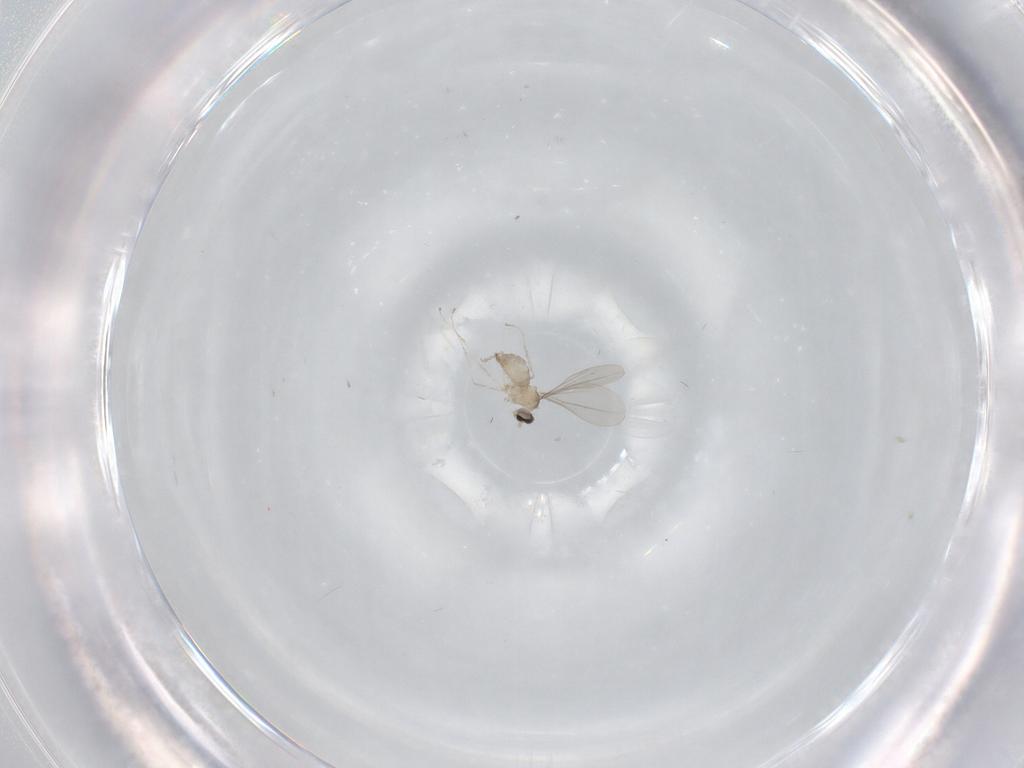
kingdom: Animalia
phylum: Arthropoda
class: Insecta
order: Diptera
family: Cecidomyiidae
